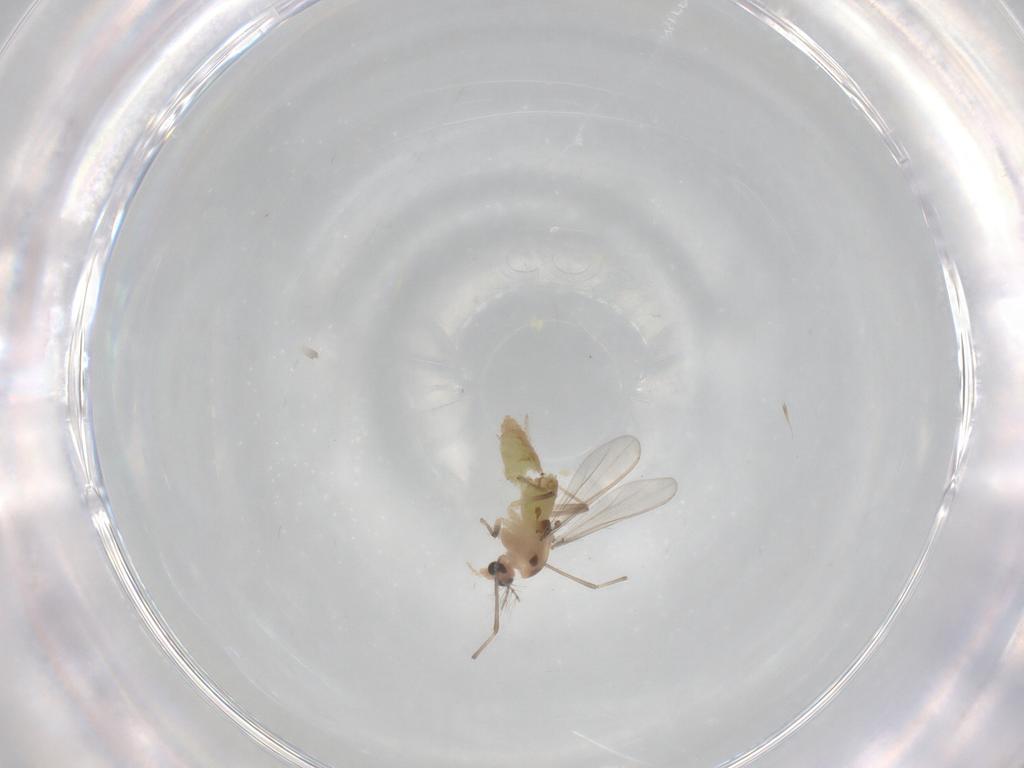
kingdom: Animalia
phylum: Arthropoda
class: Insecta
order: Diptera
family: Chironomidae
